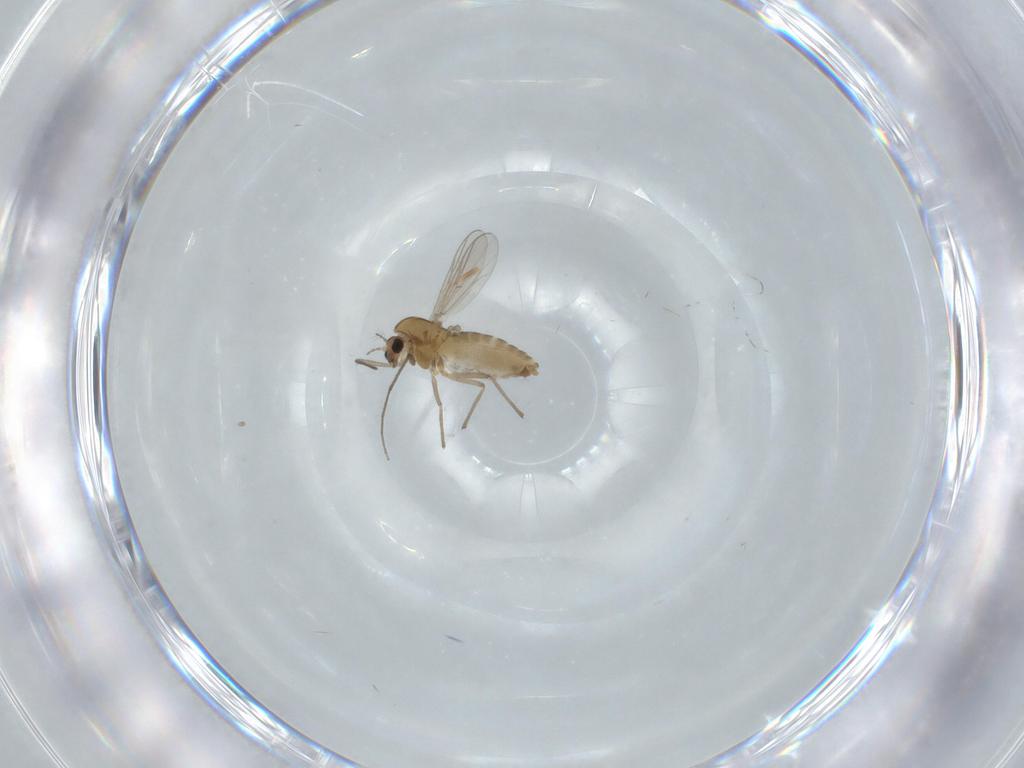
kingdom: Animalia
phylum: Arthropoda
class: Insecta
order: Diptera
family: Chironomidae
